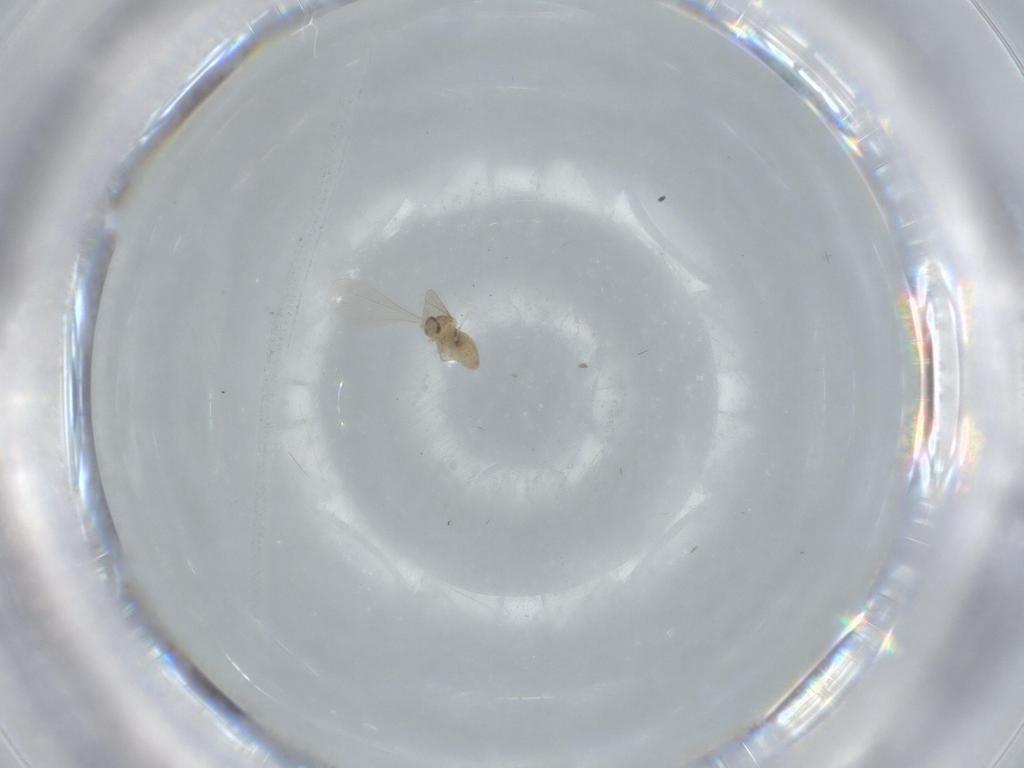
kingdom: Animalia
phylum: Arthropoda
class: Insecta
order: Diptera
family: Cecidomyiidae
